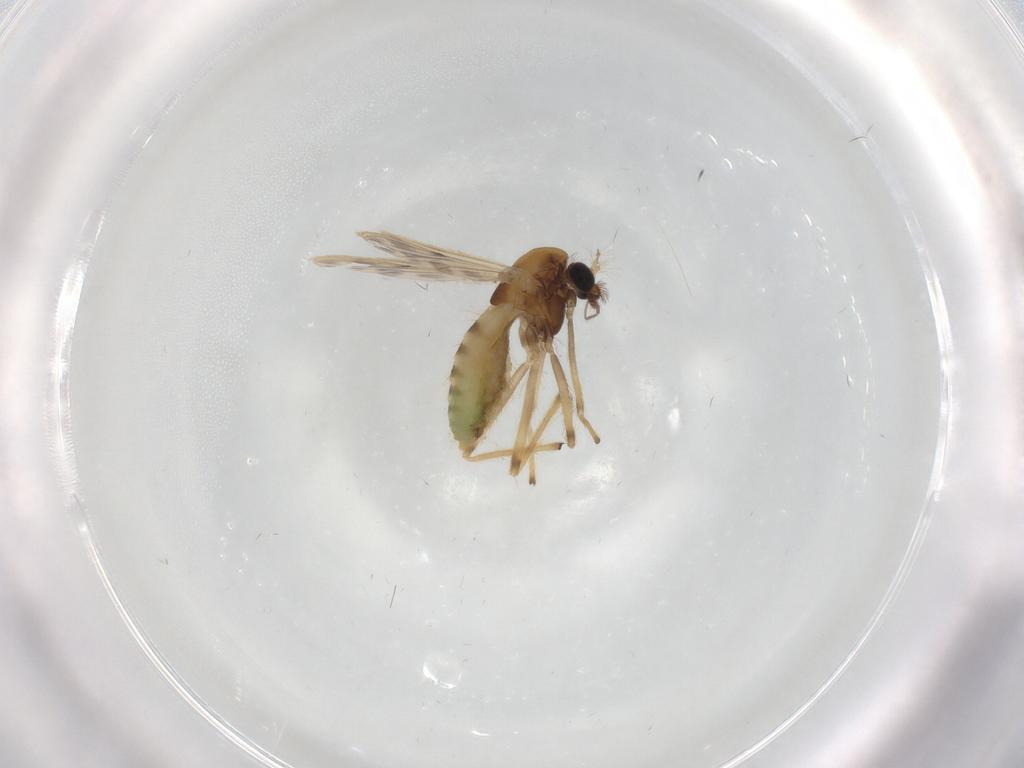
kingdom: Animalia
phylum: Arthropoda
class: Insecta
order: Diptera
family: Chironomidae
